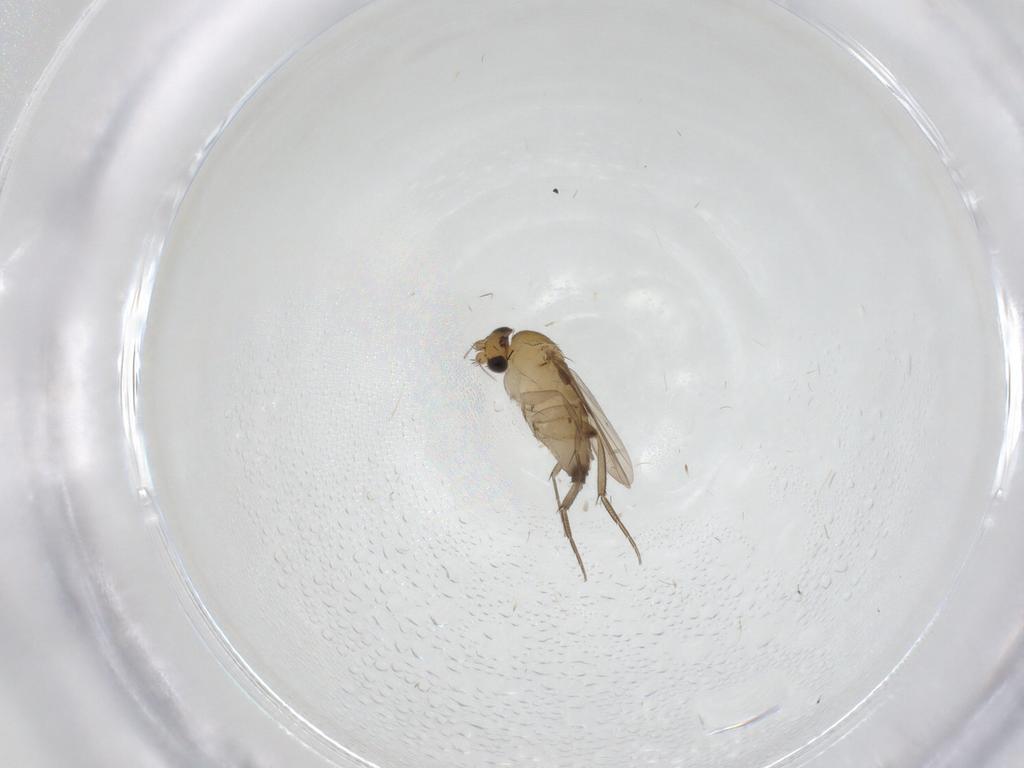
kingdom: Animalia
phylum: Arthropoda
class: Insecta
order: Diptera
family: Phoridae
